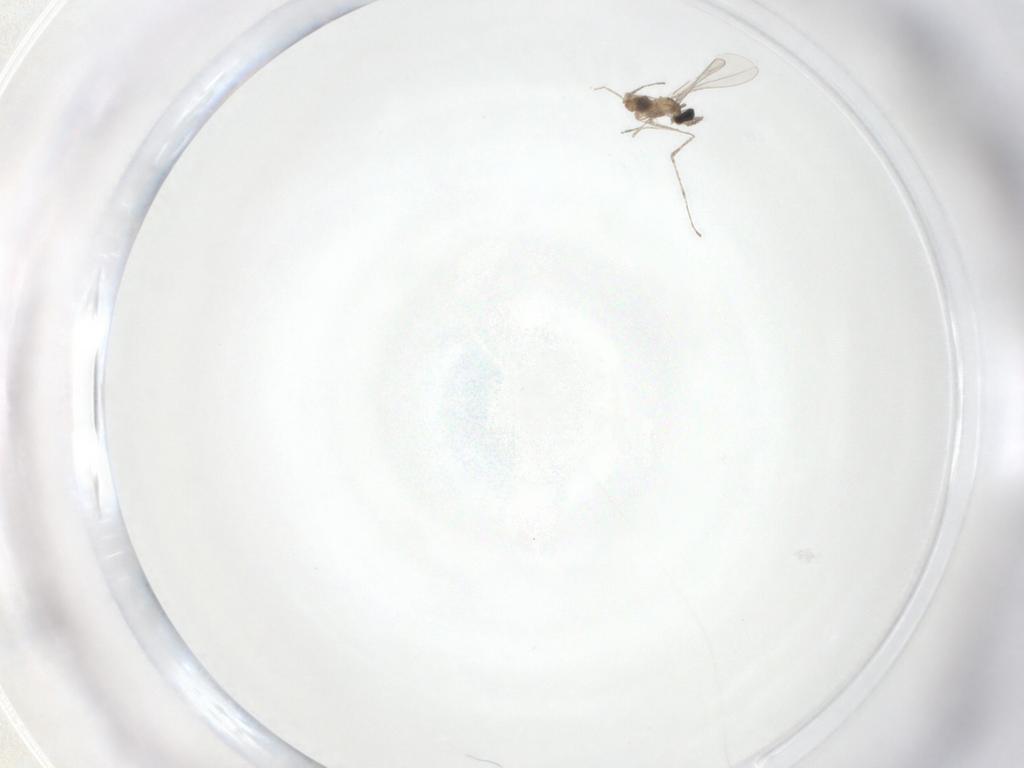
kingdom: Animalia
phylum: Arthropoda
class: Insecta
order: Diptera
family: Cecidomyiidae
